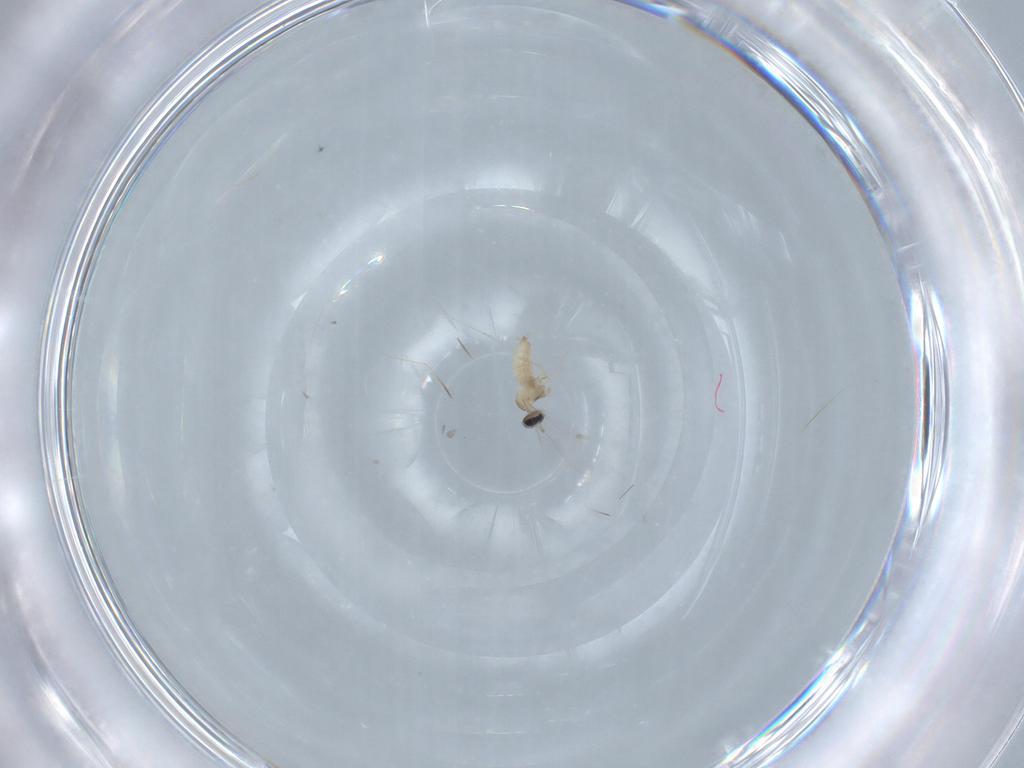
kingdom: Animalia
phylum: Arthropoda
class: Insecta
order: Diptera
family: Cecidomyiidae
